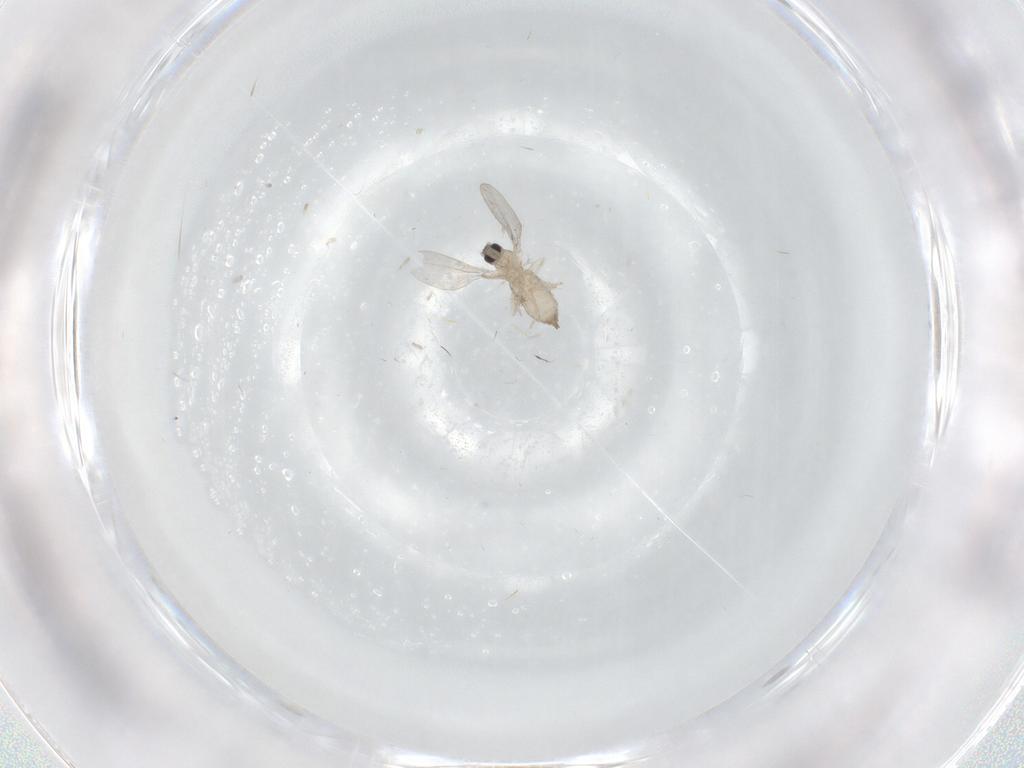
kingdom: Animalia
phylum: Arthropoda
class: Insecta
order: Diptera
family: Cecidomyiidae
